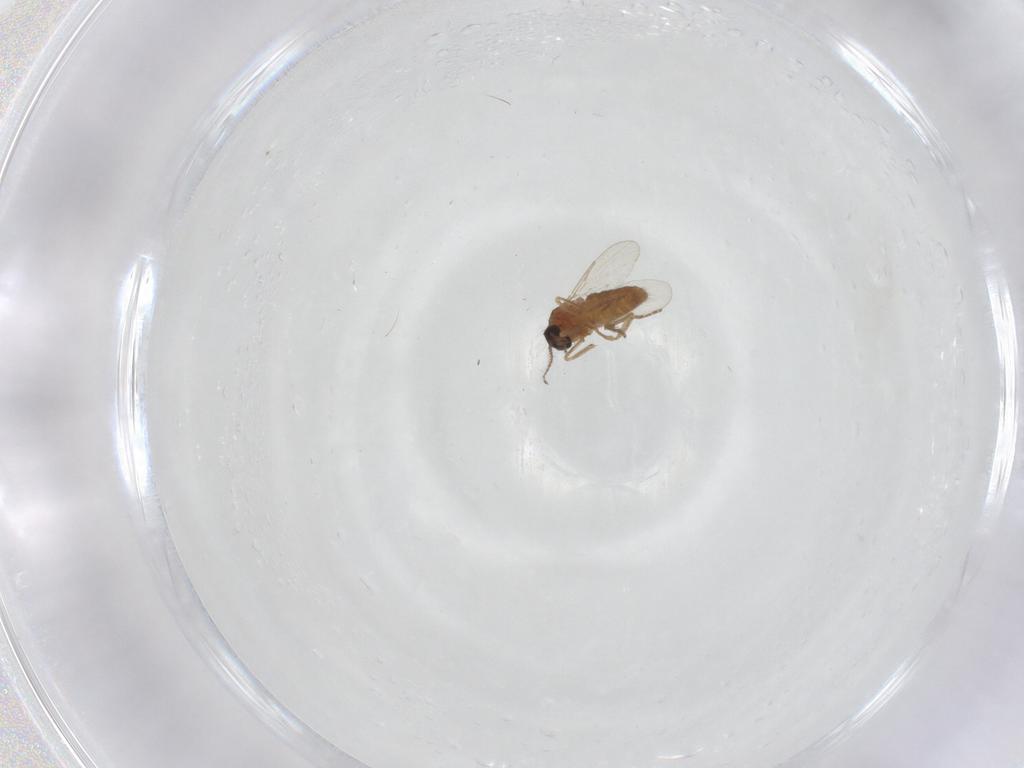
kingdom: Animalia
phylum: Arthropoda
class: Insecta
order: Diptera
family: Ceratopogonidae
